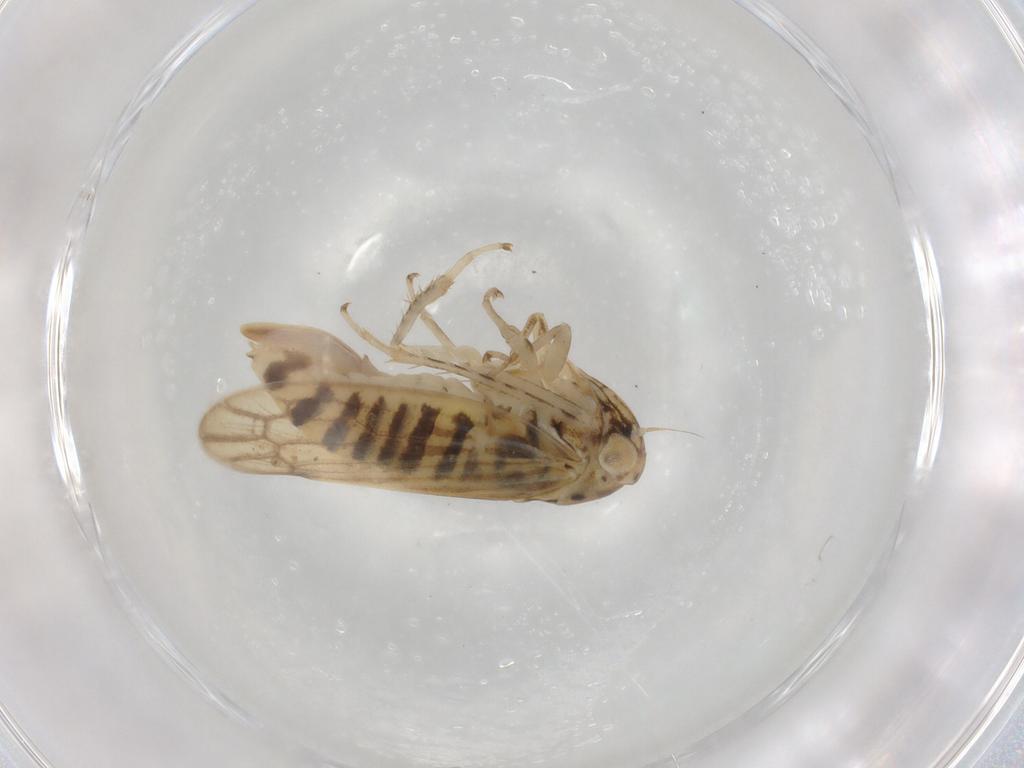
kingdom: Animalia
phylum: Arthropoda
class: Insecta
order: Hemiptera
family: Cicadellidae
